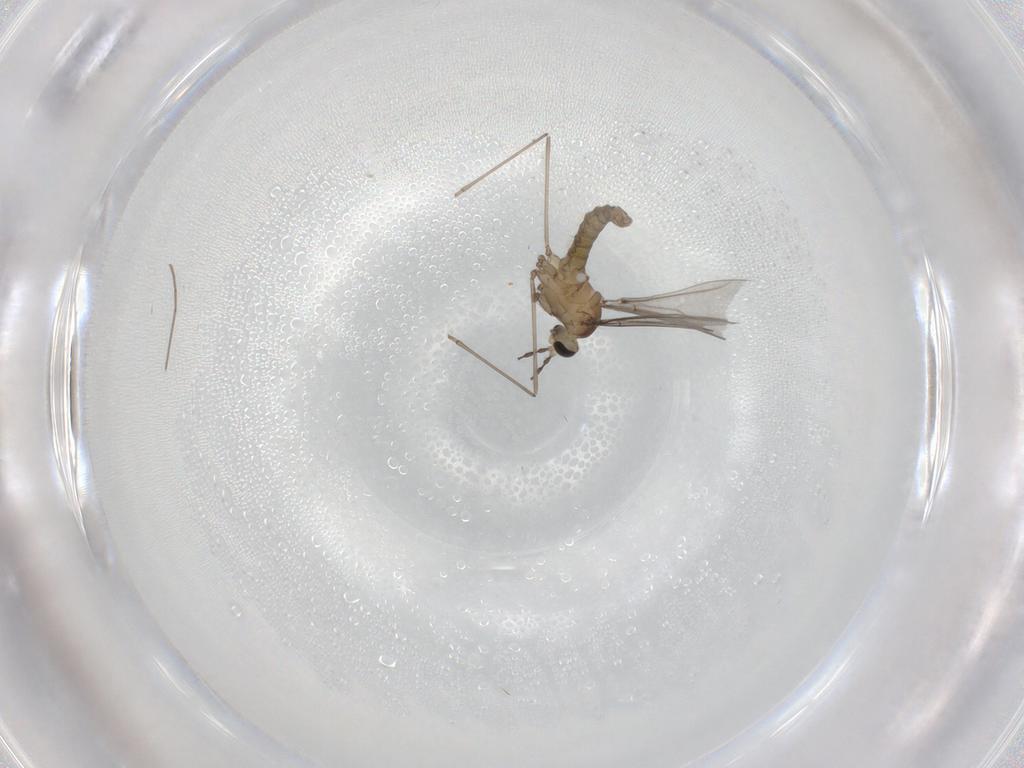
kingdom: Animalia
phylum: Arthropoda
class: Insecta
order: Diptera
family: Cecidomyiidae
